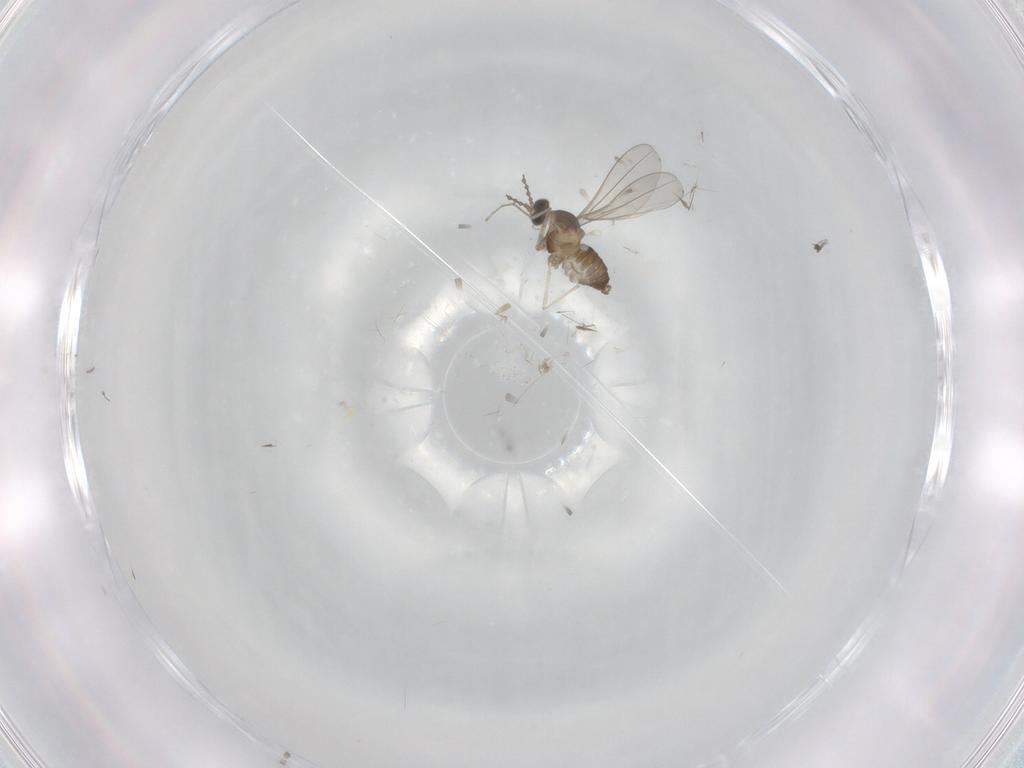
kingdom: Animalia
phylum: Arthropoda
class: Insecta
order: Diptera
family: Cecidomyiidae
